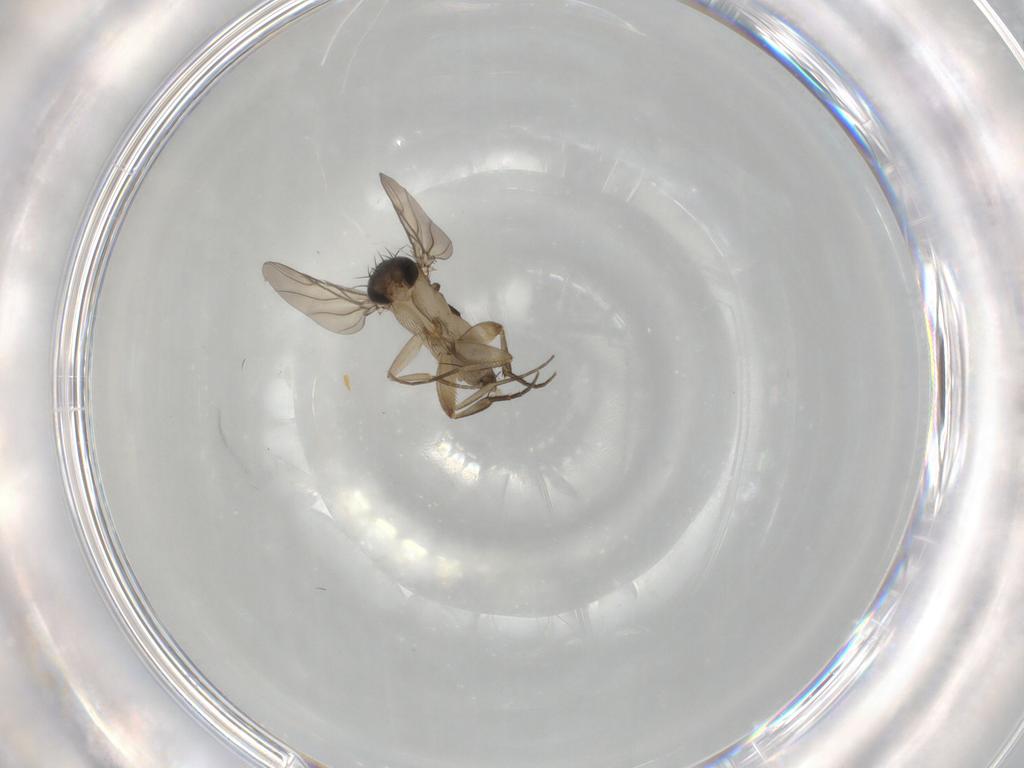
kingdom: Animalia
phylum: Arthropoda
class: Insecta
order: Diptera
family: Phoridae
